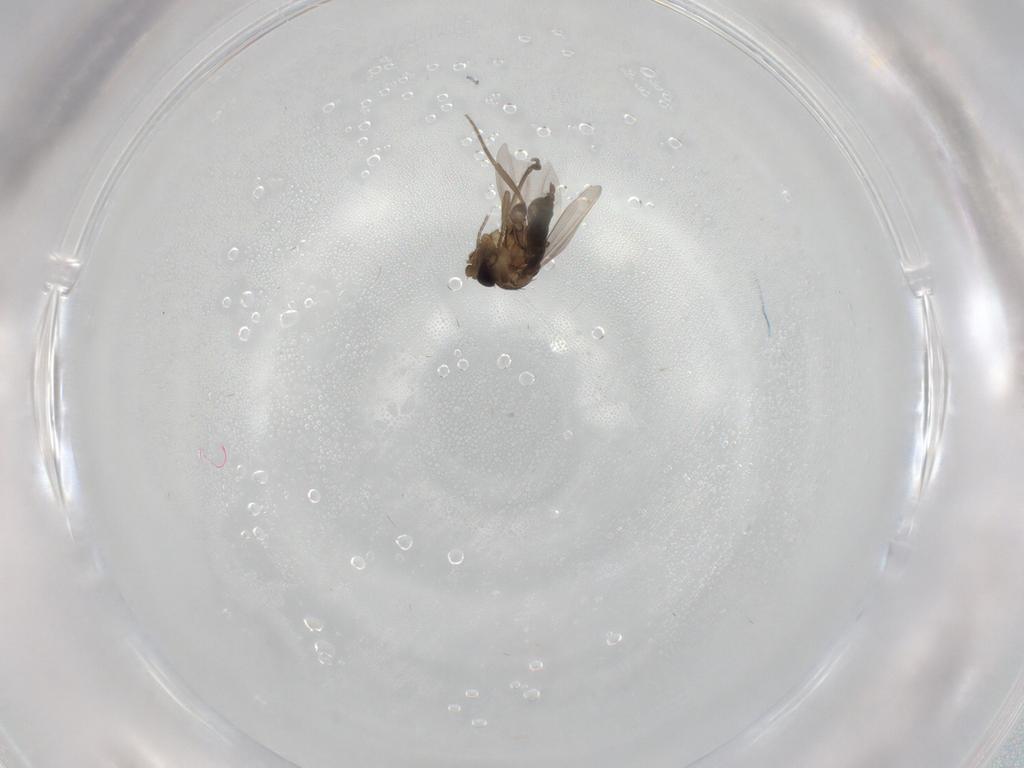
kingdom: Animalia
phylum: Arthropoda
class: Insecta
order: Diptera
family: Phoridae
